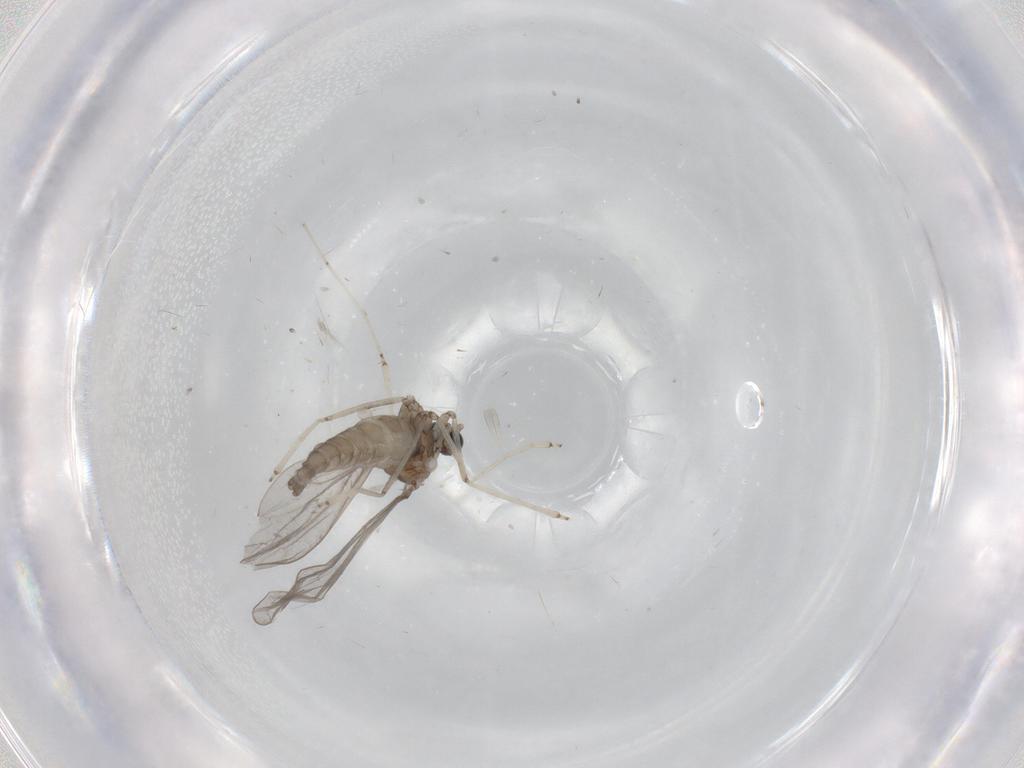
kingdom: Animalia
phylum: Arthropoda
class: Insecta
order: Diptera
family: Cecidomyiidae
